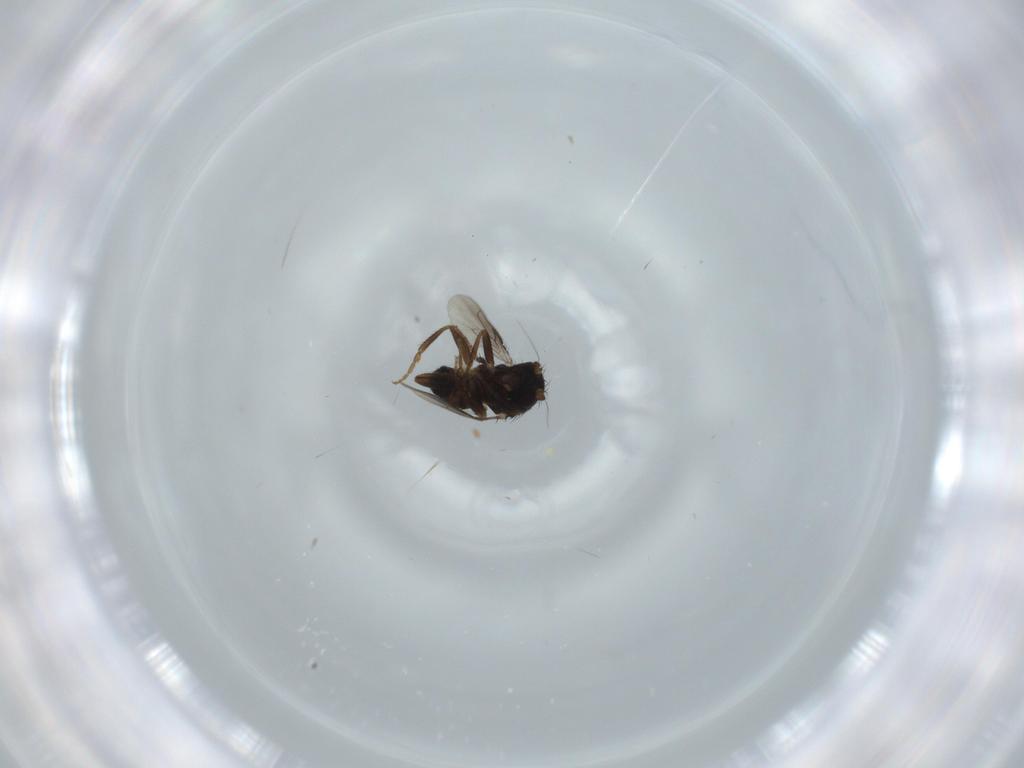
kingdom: Animalia
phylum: Arthropoda
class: Insecta
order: Diptera
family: Sphaeroceridae
